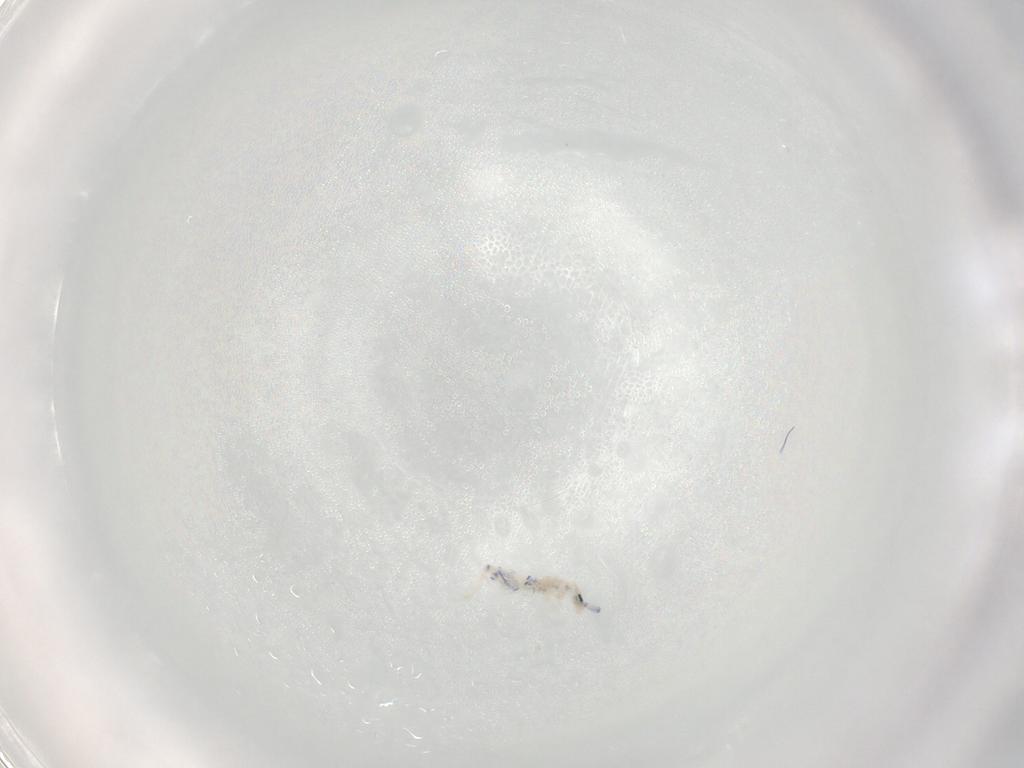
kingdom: Animalia
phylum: Arthropoda
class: Collembola
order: Entomobryomorpha
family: Entomobryidae
